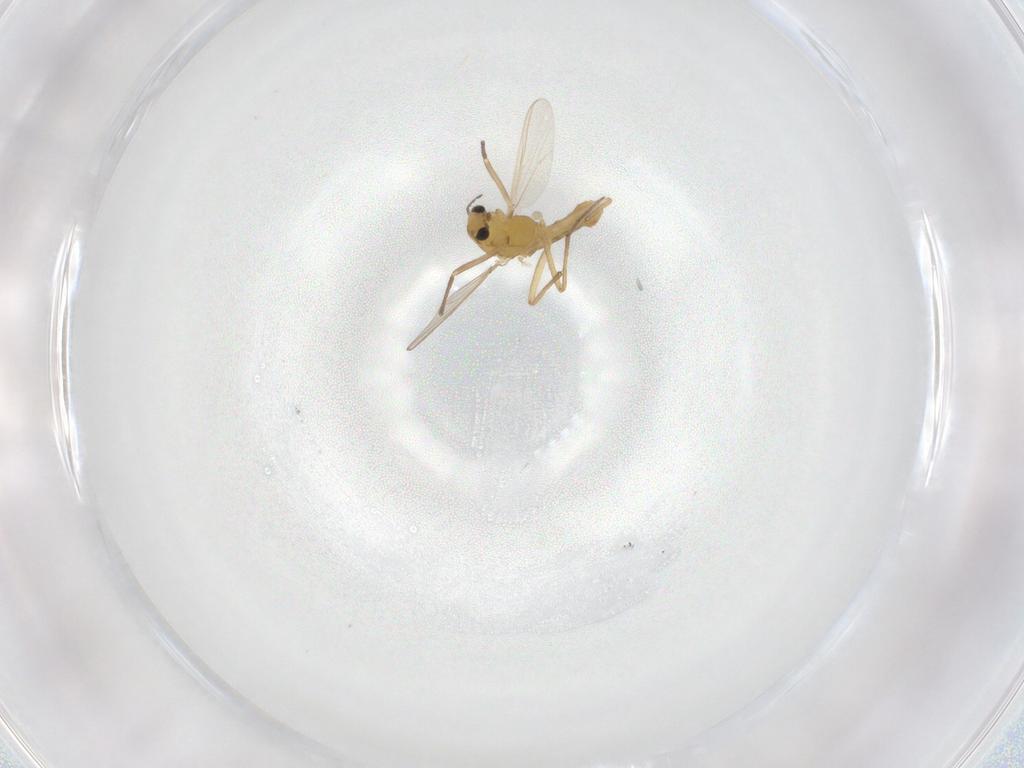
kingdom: Animalia
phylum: Arthropoda
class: Insecta
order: Diptera
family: Chironomidae
